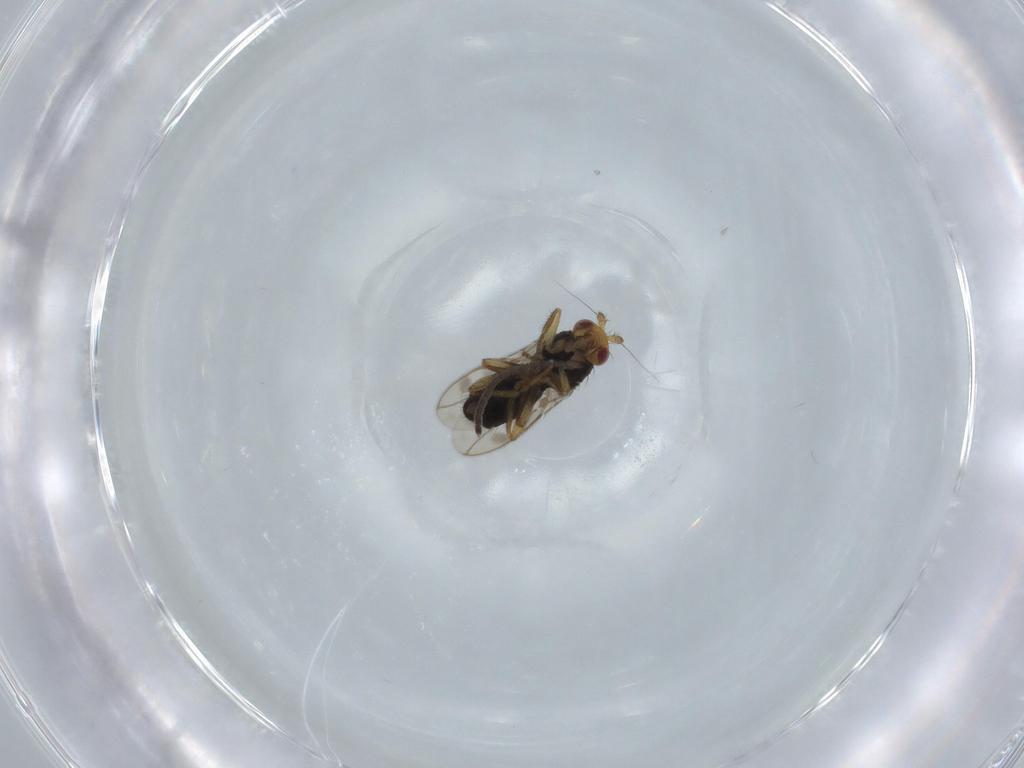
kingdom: Animalia
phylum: Arthropoda
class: Insecta
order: Diptera
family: Sphaeroceridae
